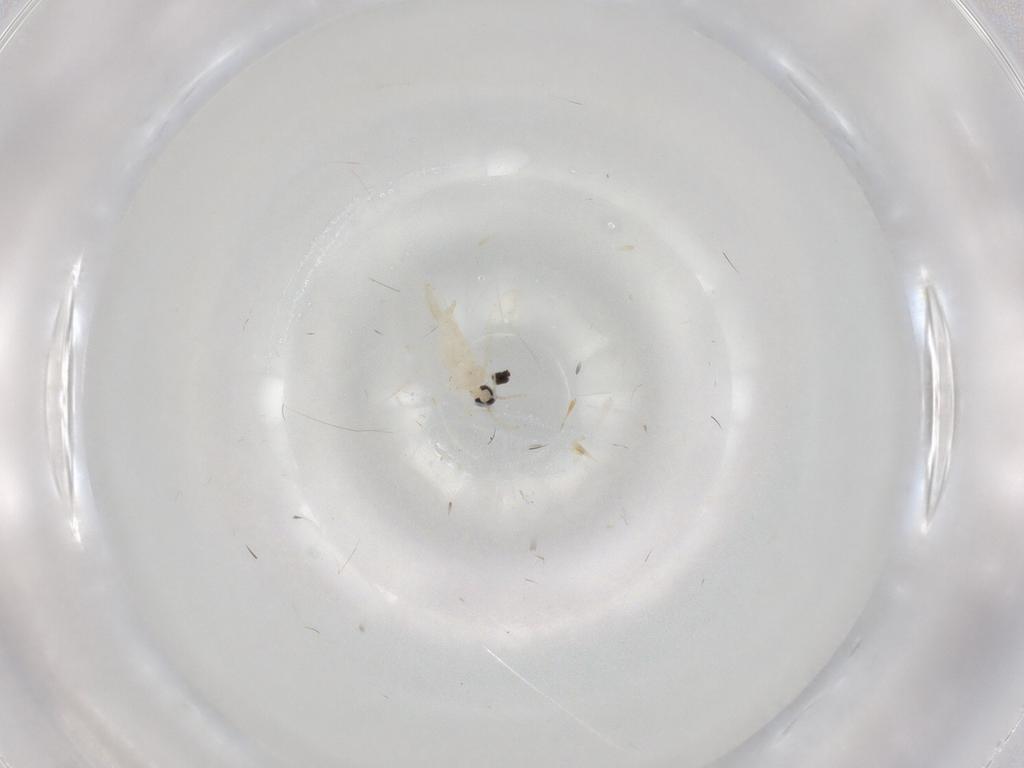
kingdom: Animalia
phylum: Arthropoda
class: Insecta
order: Diptera
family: Cecidomyiidae
